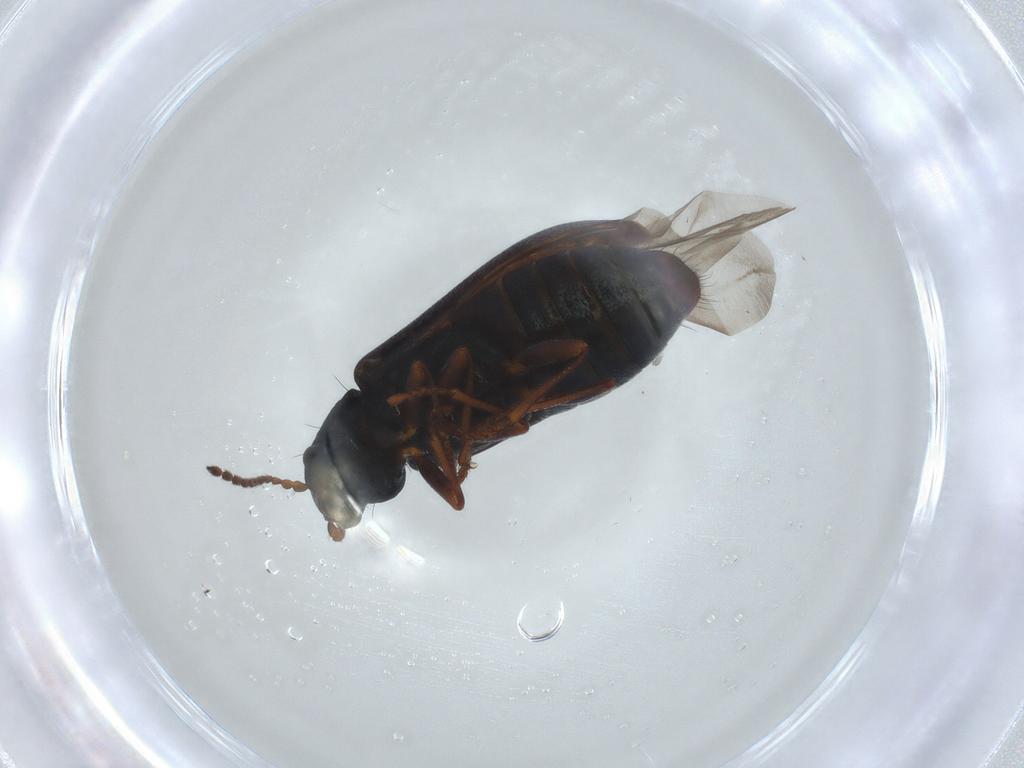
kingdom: Animalia
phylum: Arthropoda
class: Insecta
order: Coleoptera
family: Melyridae
